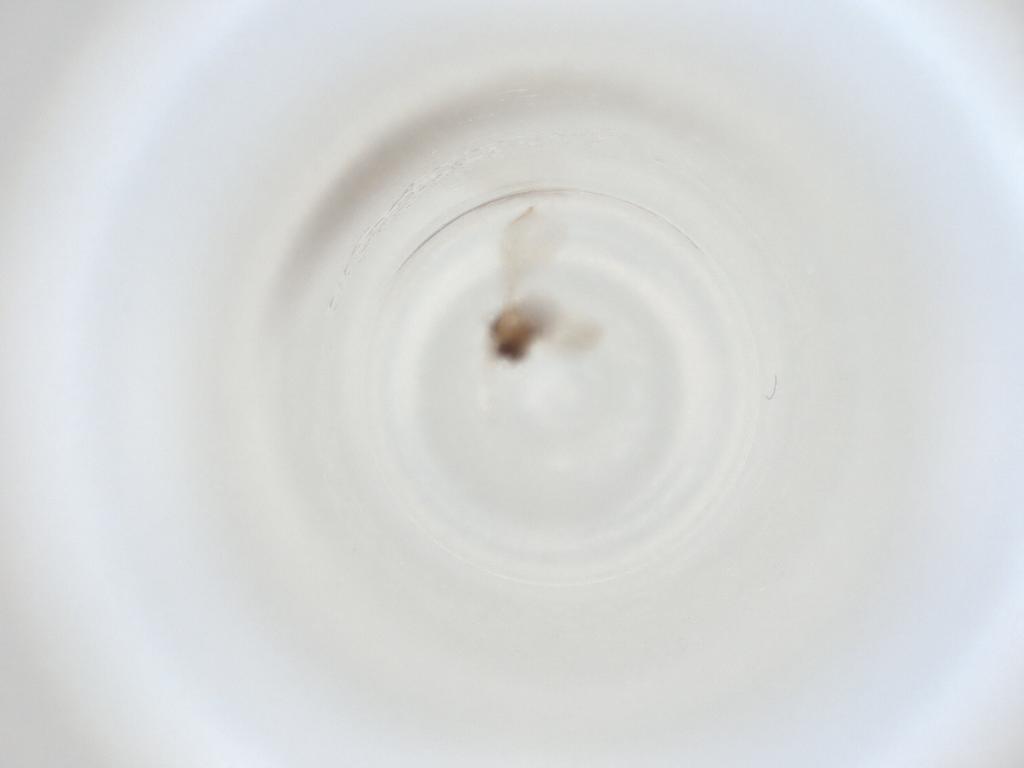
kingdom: Animalia
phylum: Arthropoda
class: Insecta
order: Diptera
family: Cecidomyiidae
